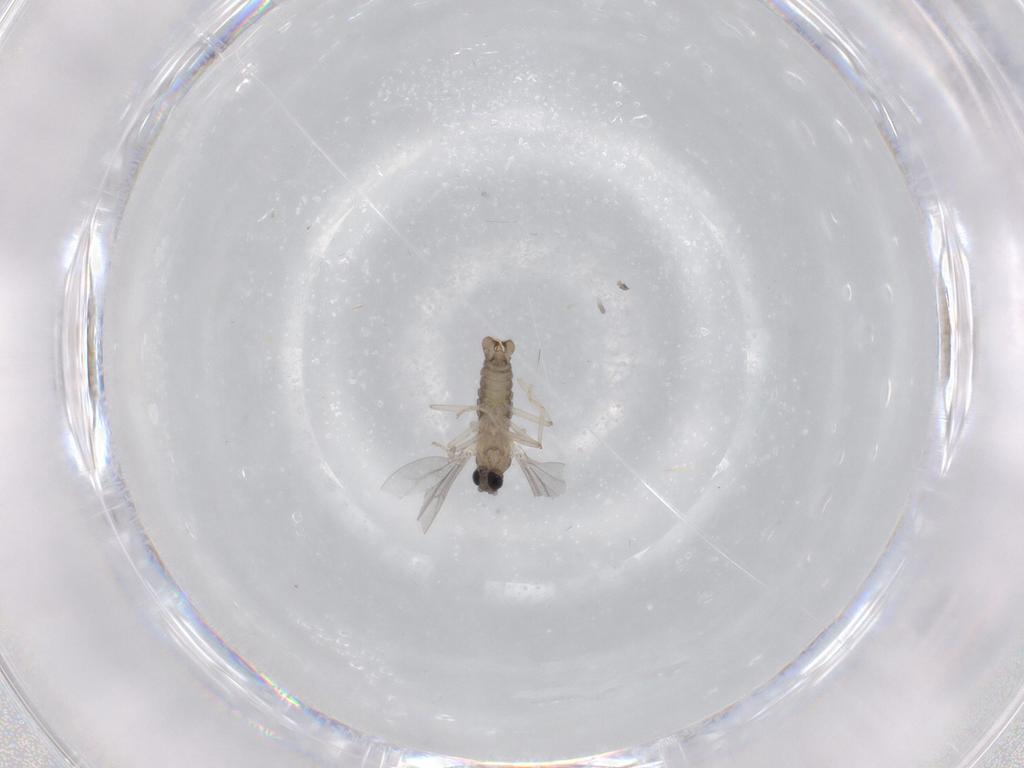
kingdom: Animalia
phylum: Arthropoda
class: Insecta
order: Diptera
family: Cecidomyiidae
